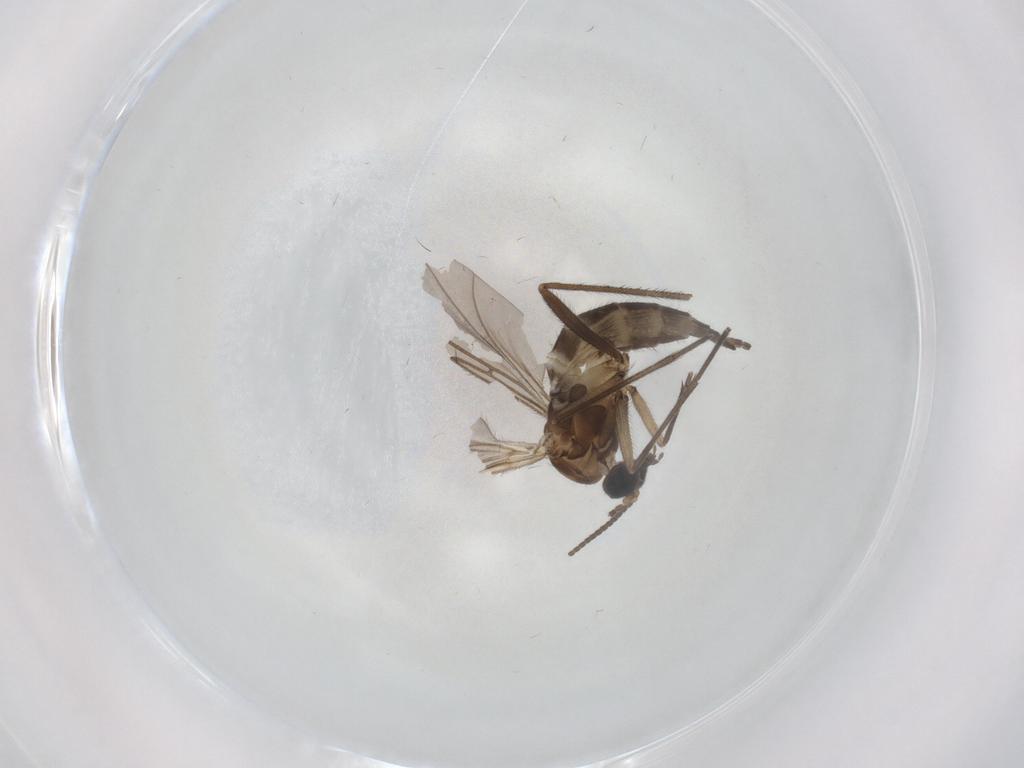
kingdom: Animalia
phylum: Arthropoda
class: Insecta
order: Diptera
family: Sciaridae
